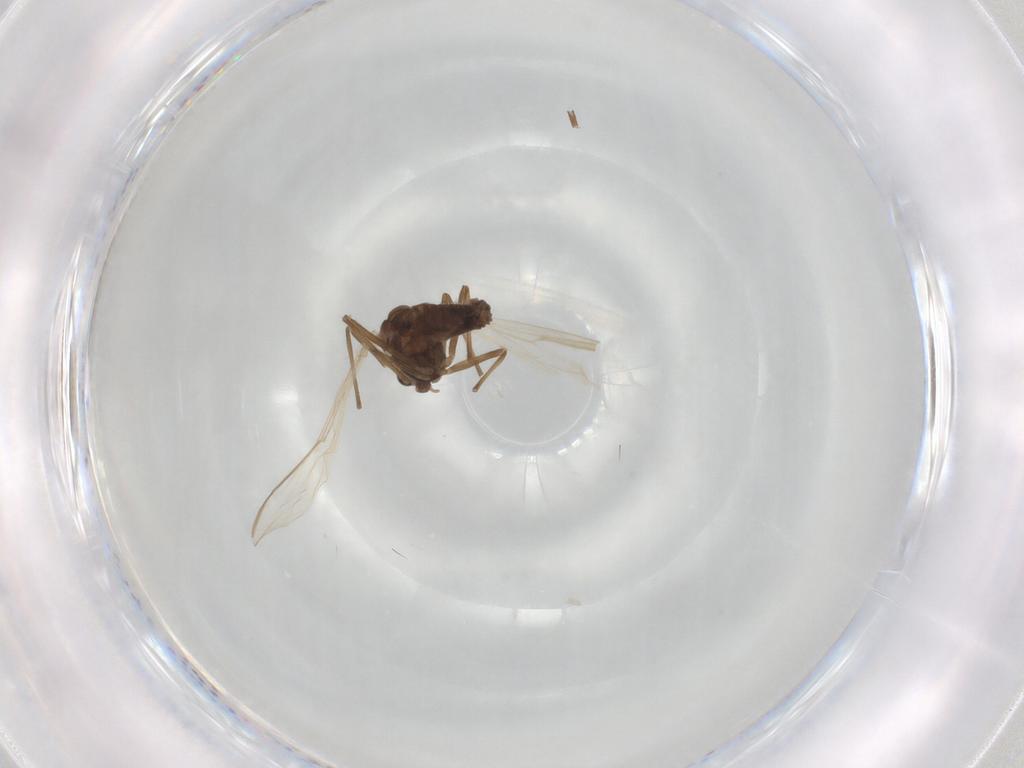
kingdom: Animalia
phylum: Arthropoda
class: Insecta
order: Diptera
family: Chironomidae
